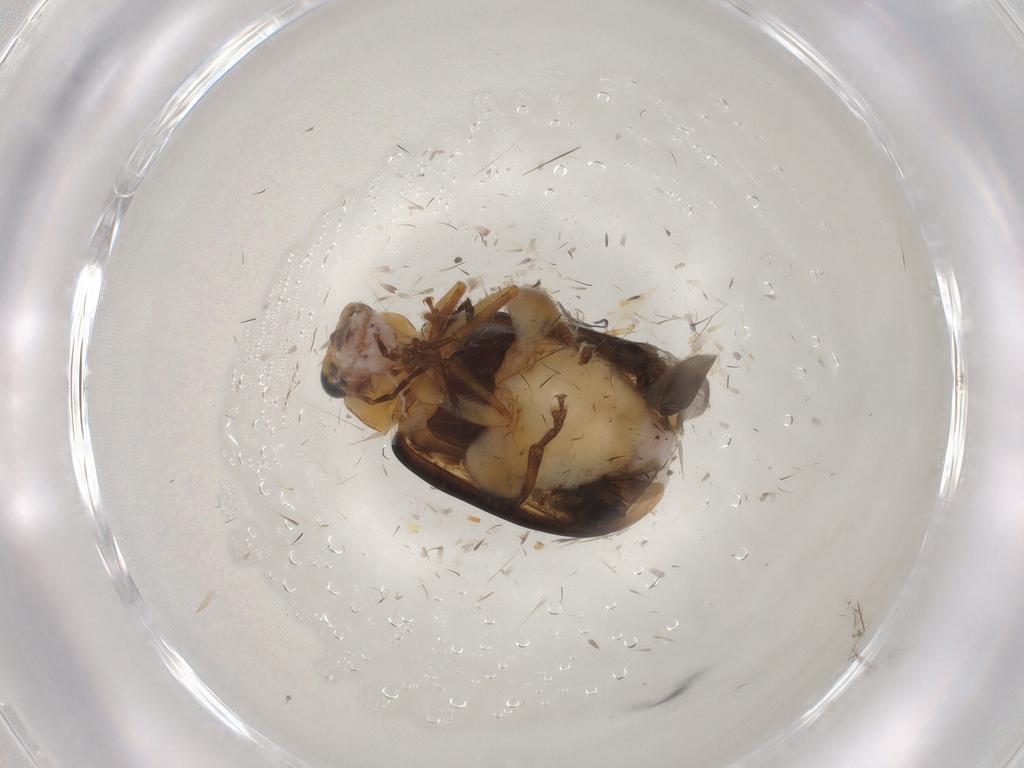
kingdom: Animalia
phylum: Arthropoda
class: Insecta
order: Coleoptera
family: Chrysomelidae
